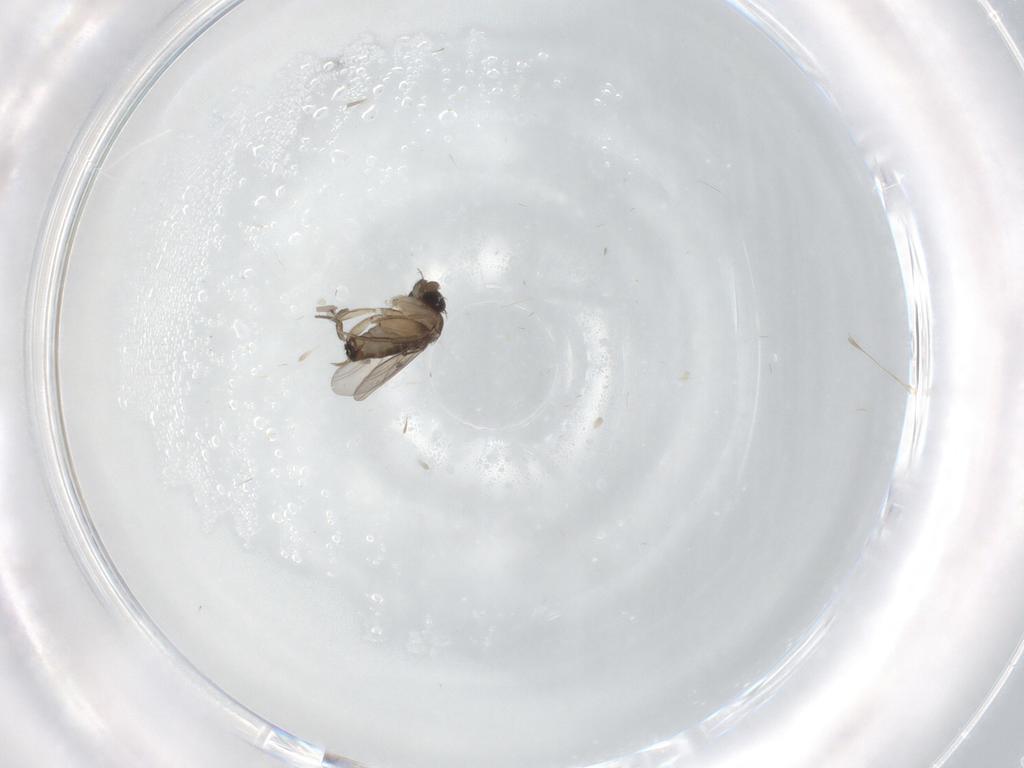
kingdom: Animalia
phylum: Arthropoda
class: Insecta
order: Diptera
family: Phoridae
